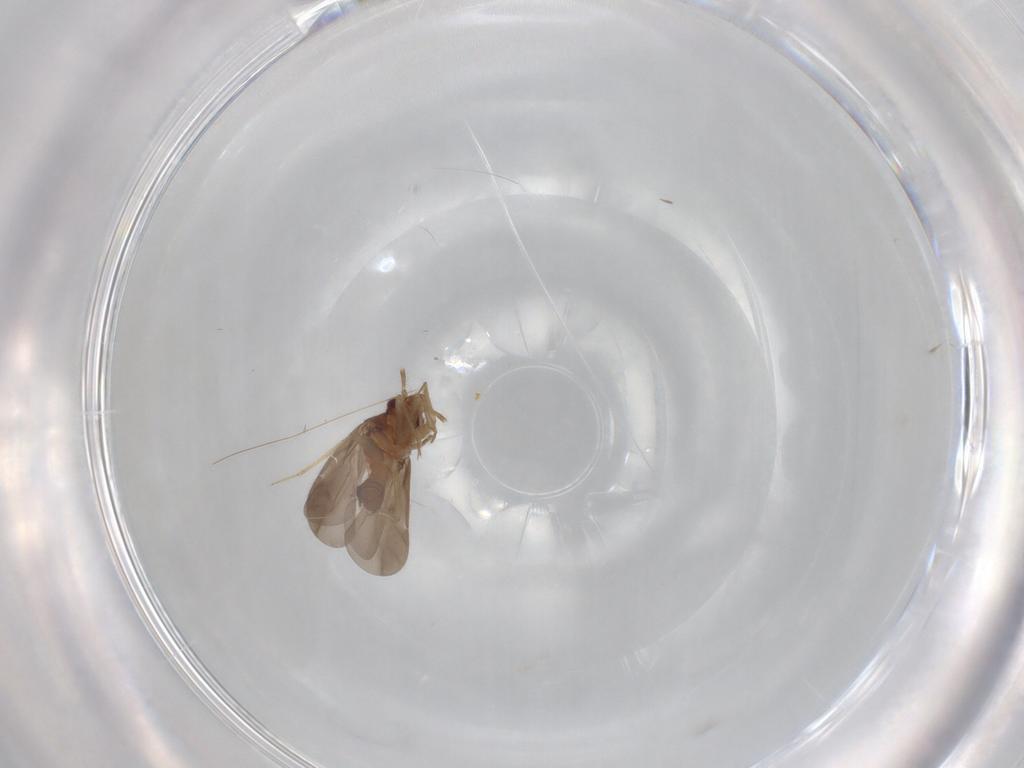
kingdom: Animalia
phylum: Arthropoda
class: Insecta
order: Hemiptera
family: Ceratocombidae
